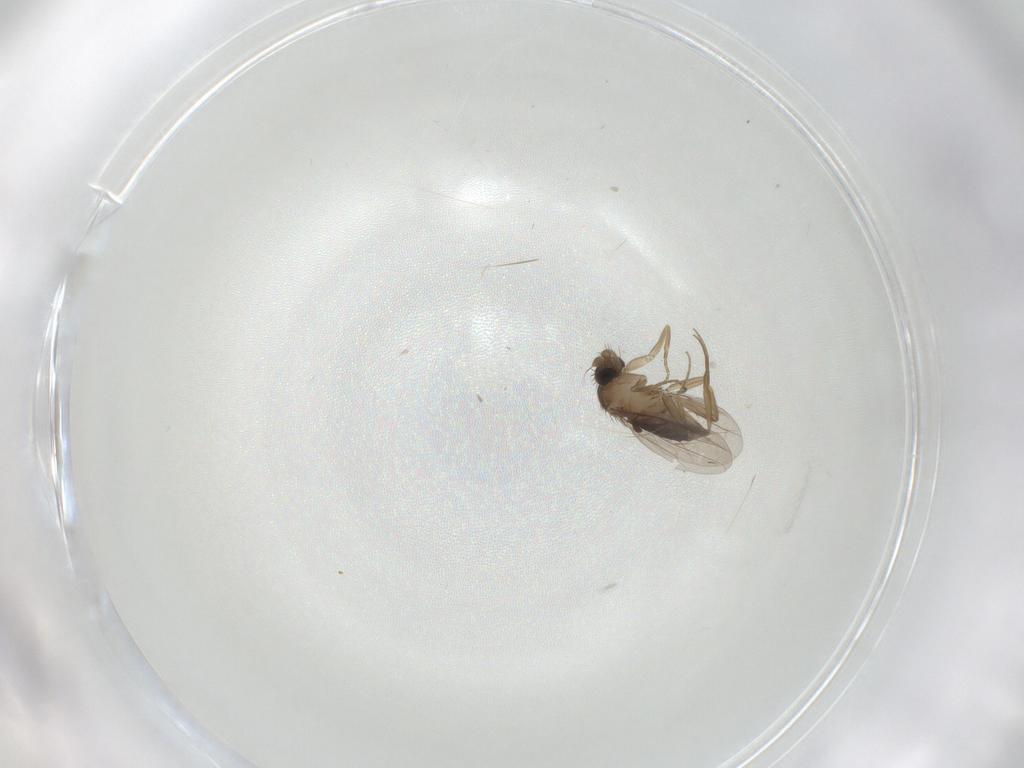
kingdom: Animalia
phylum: Arthropoda
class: Insecta
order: Diptera
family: Phoridae
